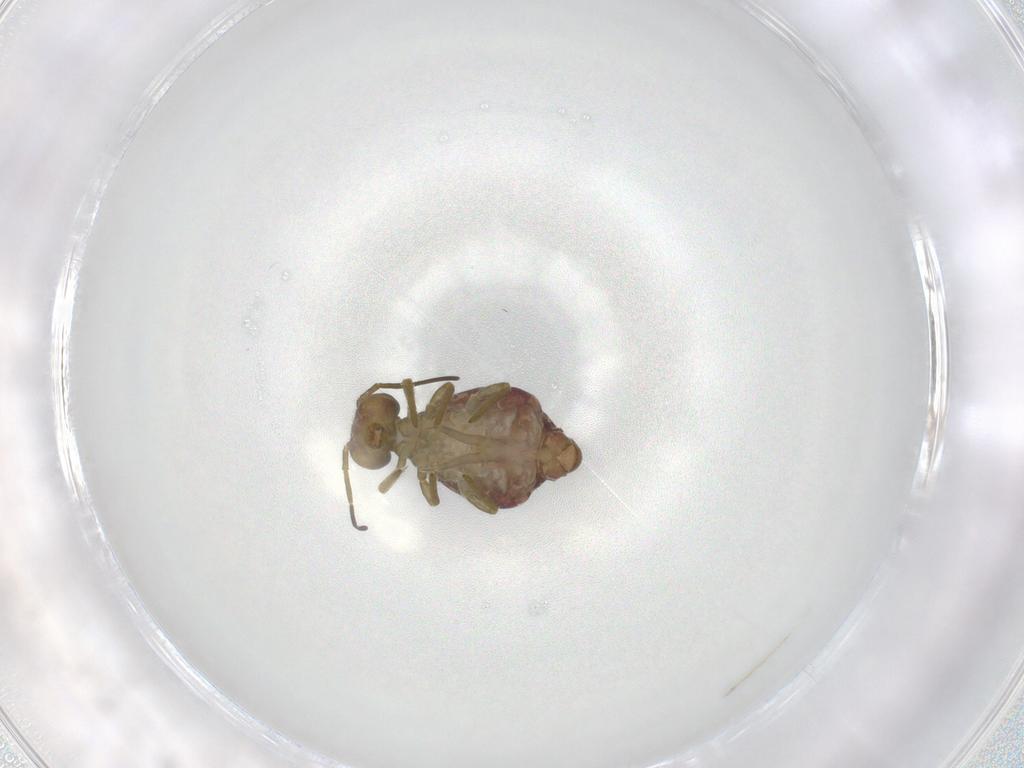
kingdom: Animalia
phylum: Arthropoda
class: Collembola
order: Symphypleona
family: Sminthuridae
